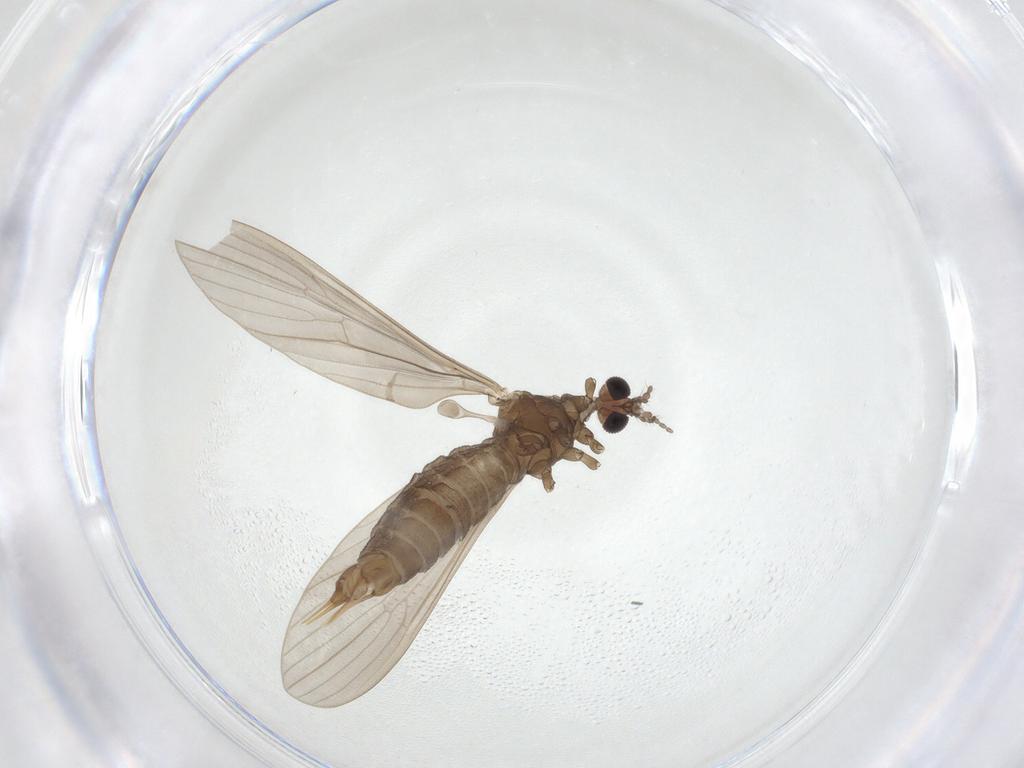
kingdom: Animalia
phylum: Arthropoda
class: Insecta
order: Diptera
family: Limoniidae
